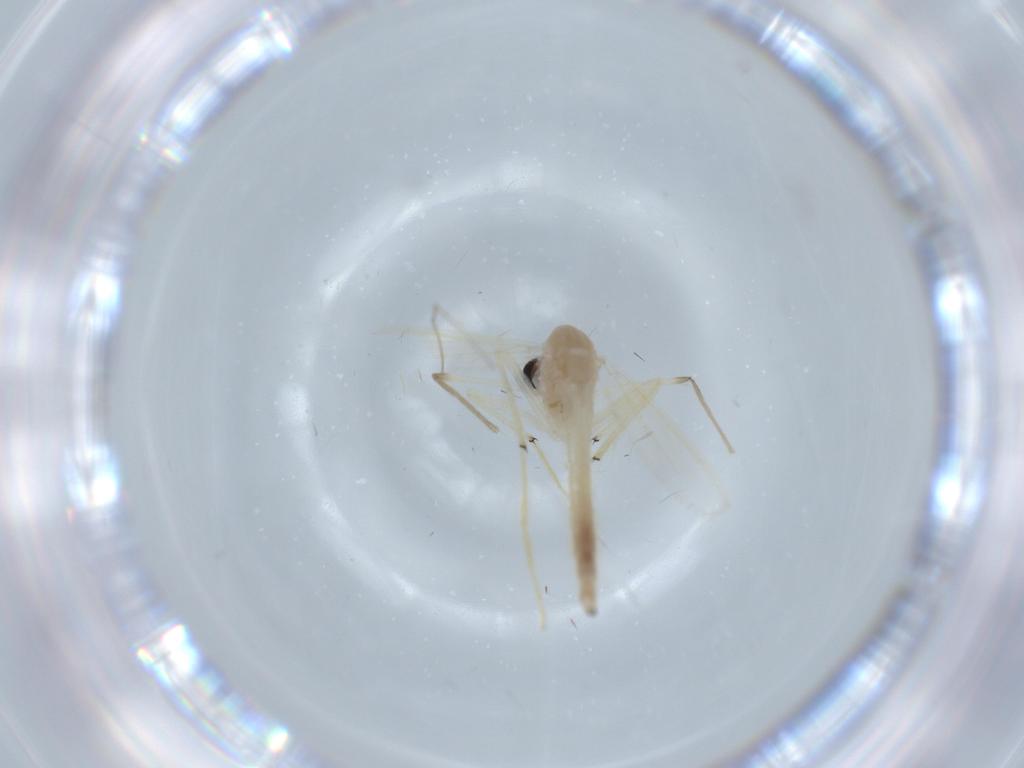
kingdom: Animalia
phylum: Arthropoda
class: Insecta
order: Diptera
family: Chironomidae
